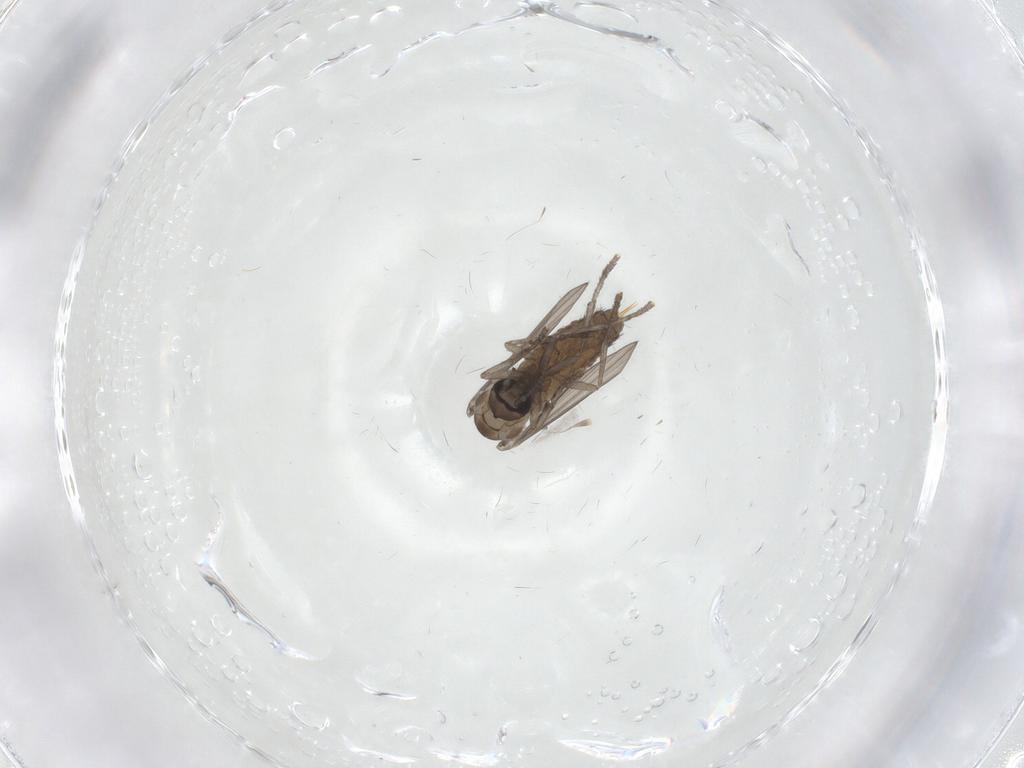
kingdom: Animalia
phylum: Arthropoda
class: Insecta
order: Diptera
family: Psychodidae
